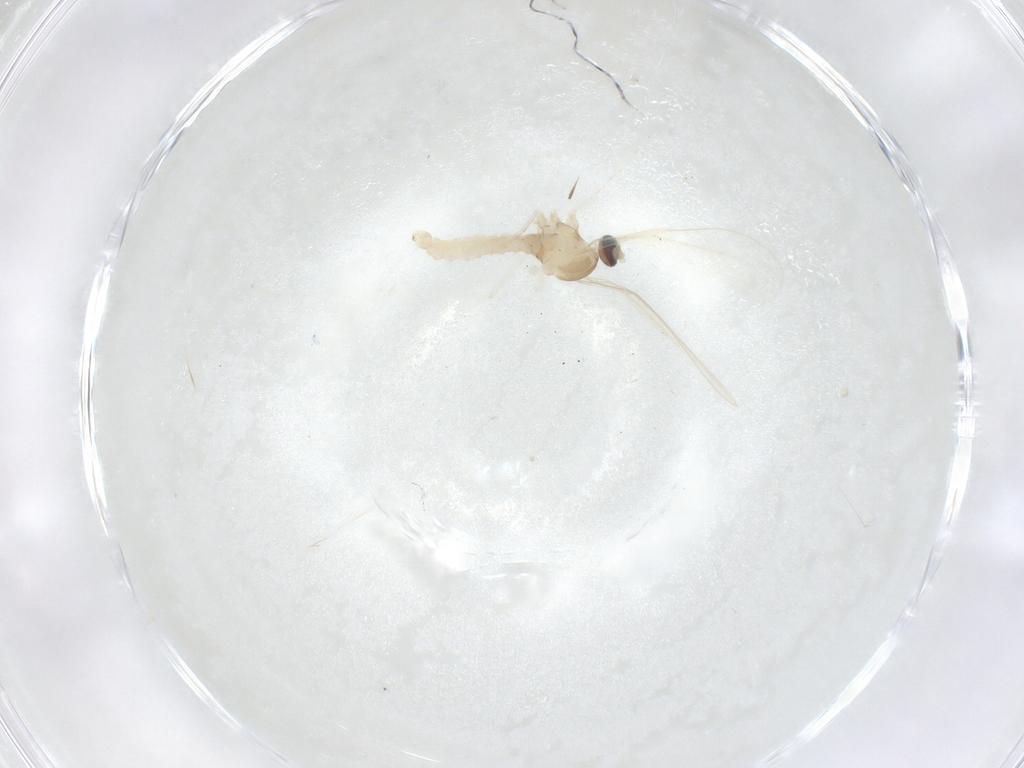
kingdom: Animalia
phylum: Arthropoda
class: Insecta
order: Diptera
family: Cecidomyiidae
